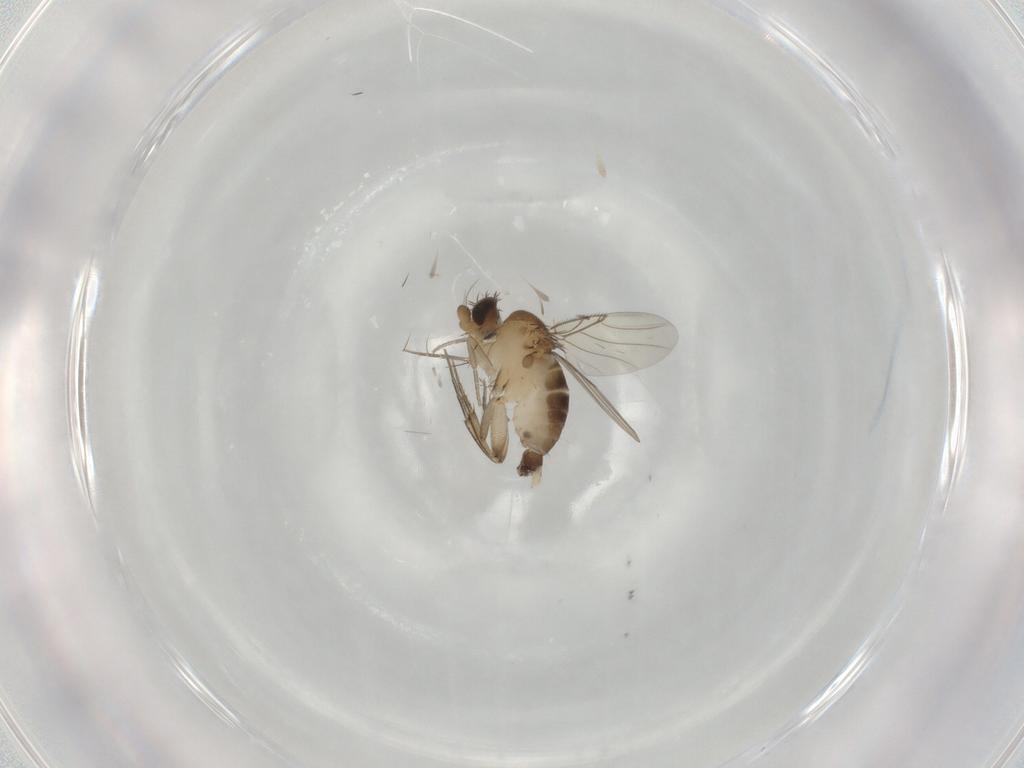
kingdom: Animalia
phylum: Arthropoda
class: Insecta
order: Diptera
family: Phoridae
